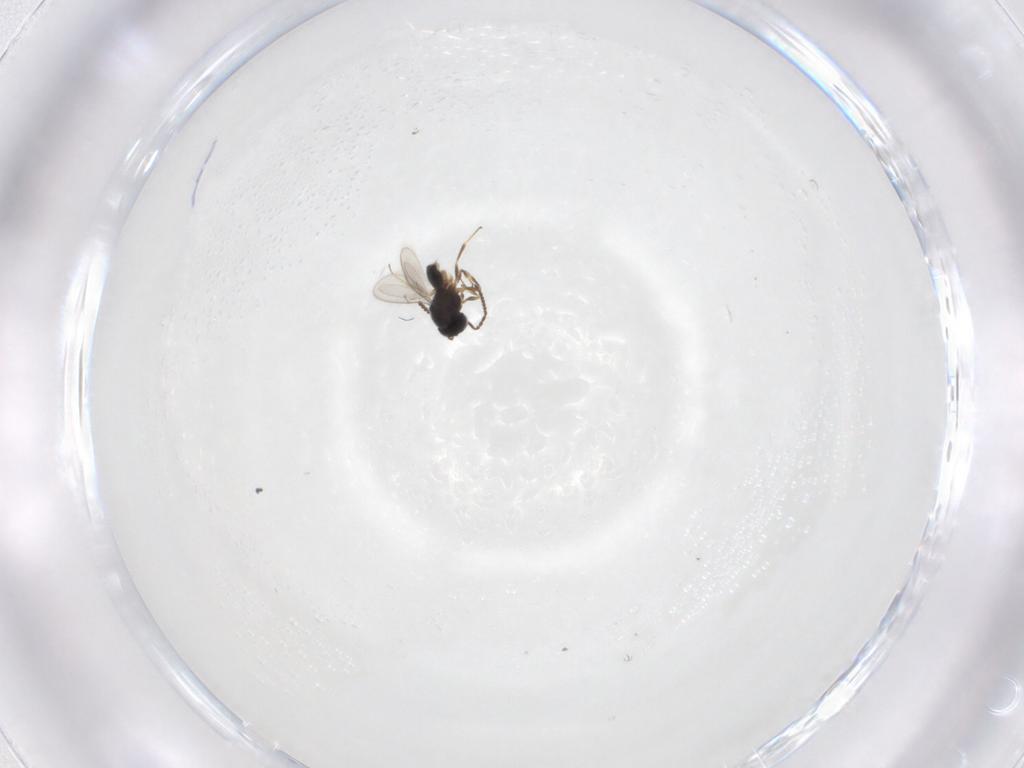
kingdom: Animalia
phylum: Arthropoda
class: Insecta
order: Hymenoptera
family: Scelionidae
